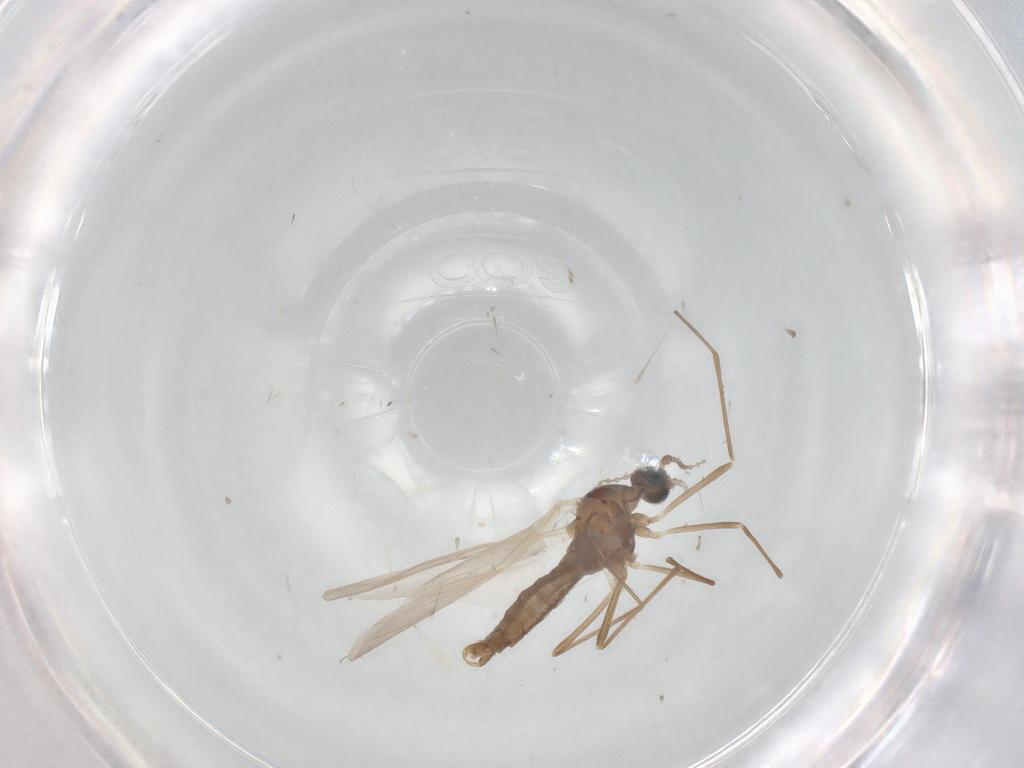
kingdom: Animalia
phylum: Arthropoda
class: Insecta
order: Diptera
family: Cecidomyiidae
